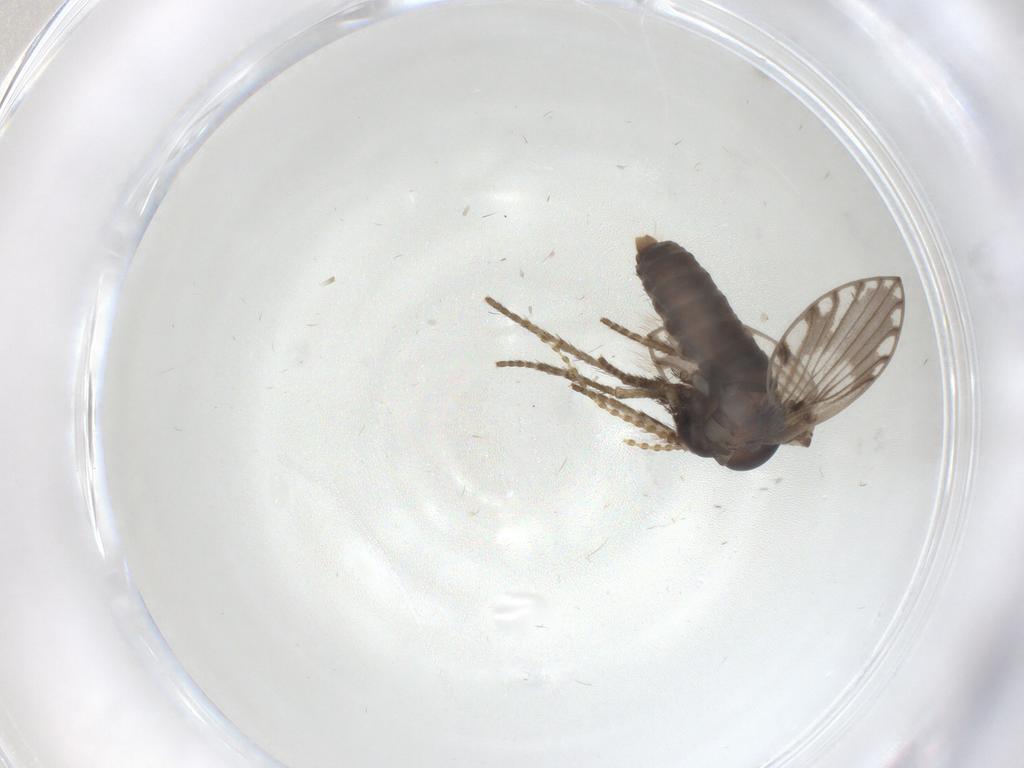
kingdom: Animalia
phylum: Arthropoda
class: Insecta
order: Diptera
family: Psychodidae
